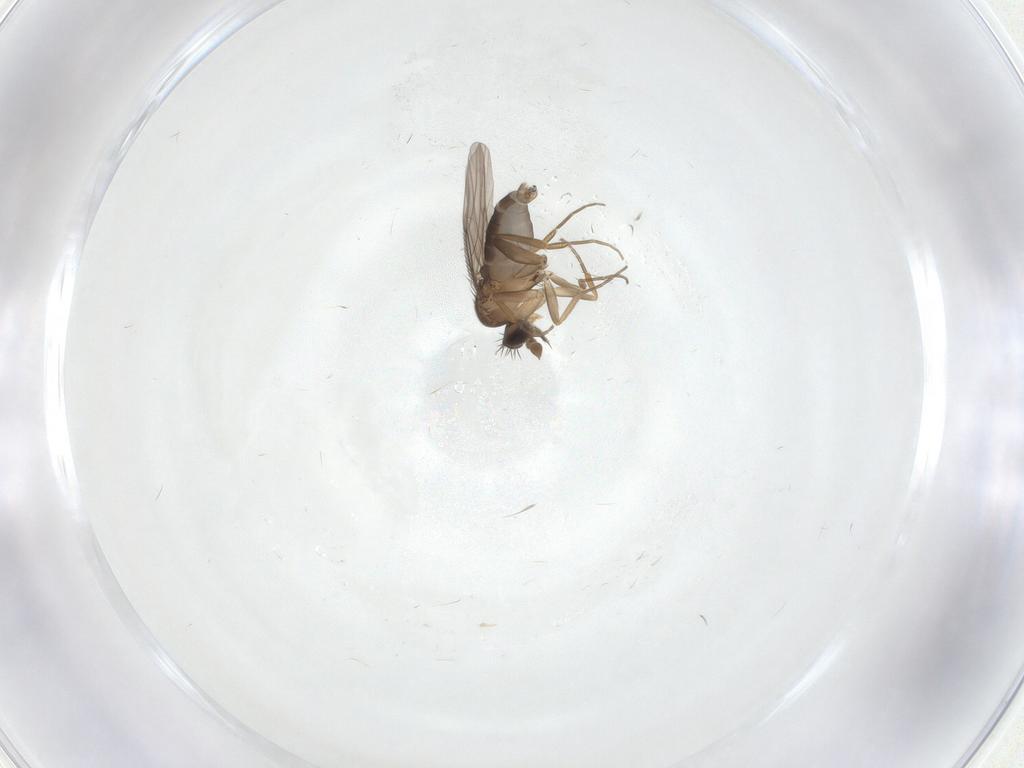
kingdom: Animalia
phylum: Arthropoda
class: Insecta
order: Diptera
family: Phoridae
